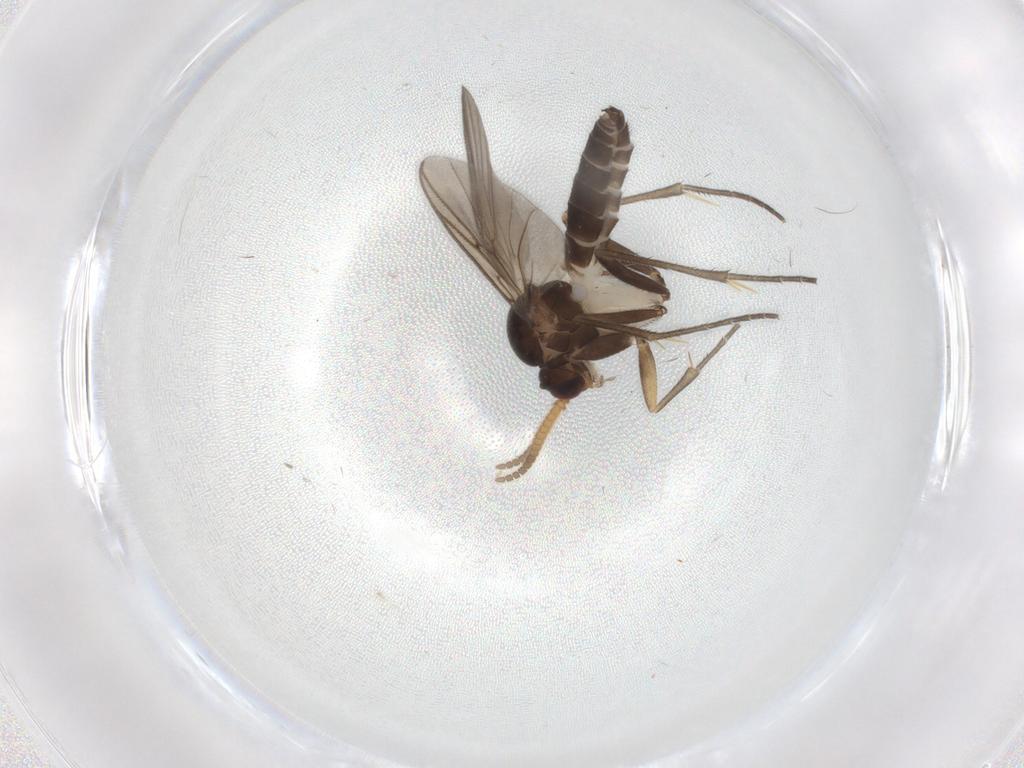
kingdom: Animalia
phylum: Arthropoda
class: Insecta
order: Diptera
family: Mycetophilidae
